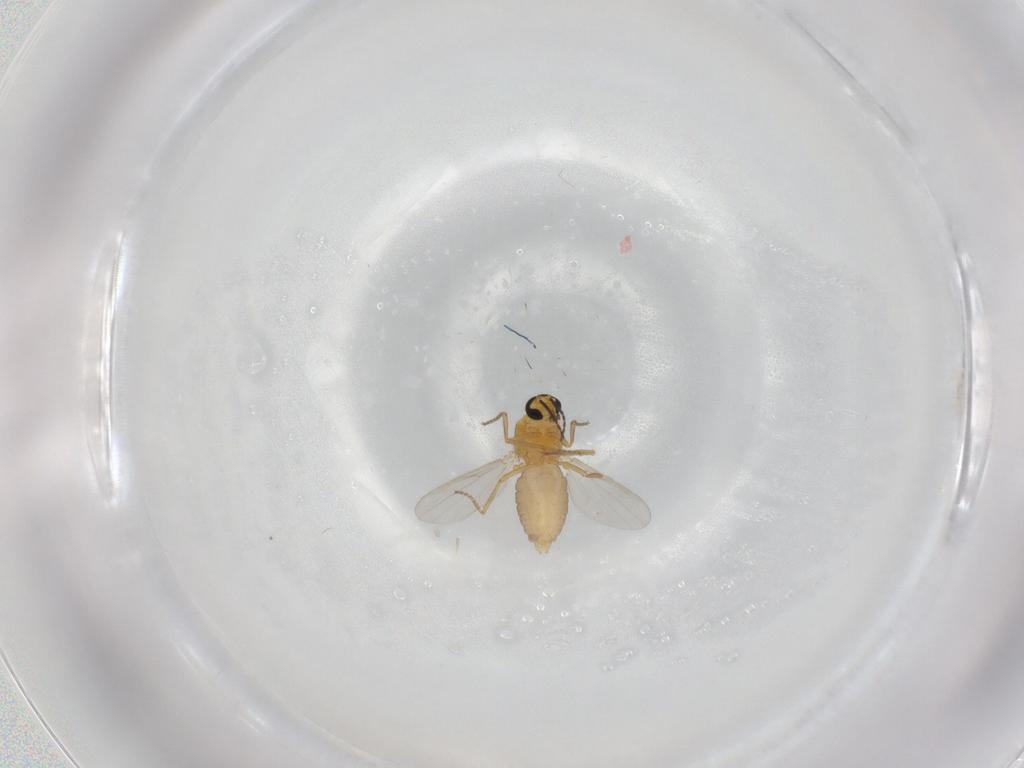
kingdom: Animalia
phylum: Arthropoda
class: Insecta
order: Diptera
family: Ceratopogonidae
